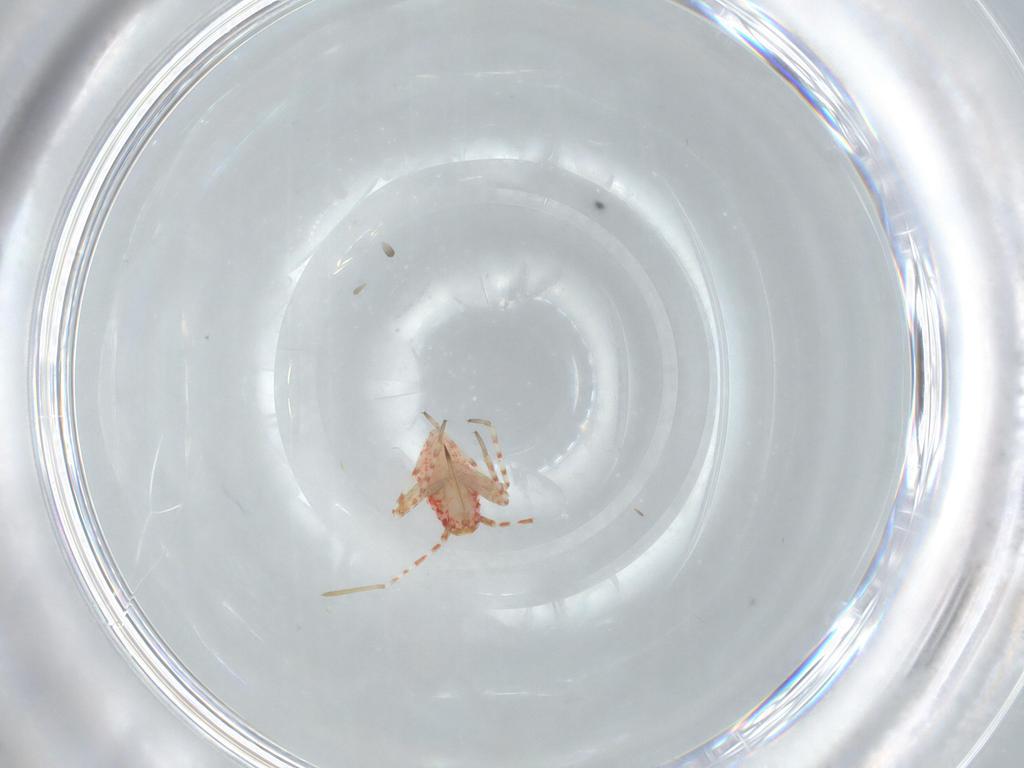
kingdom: Animalia
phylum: Arthropoda
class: Insecta
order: Hemiptera
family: Miridae
